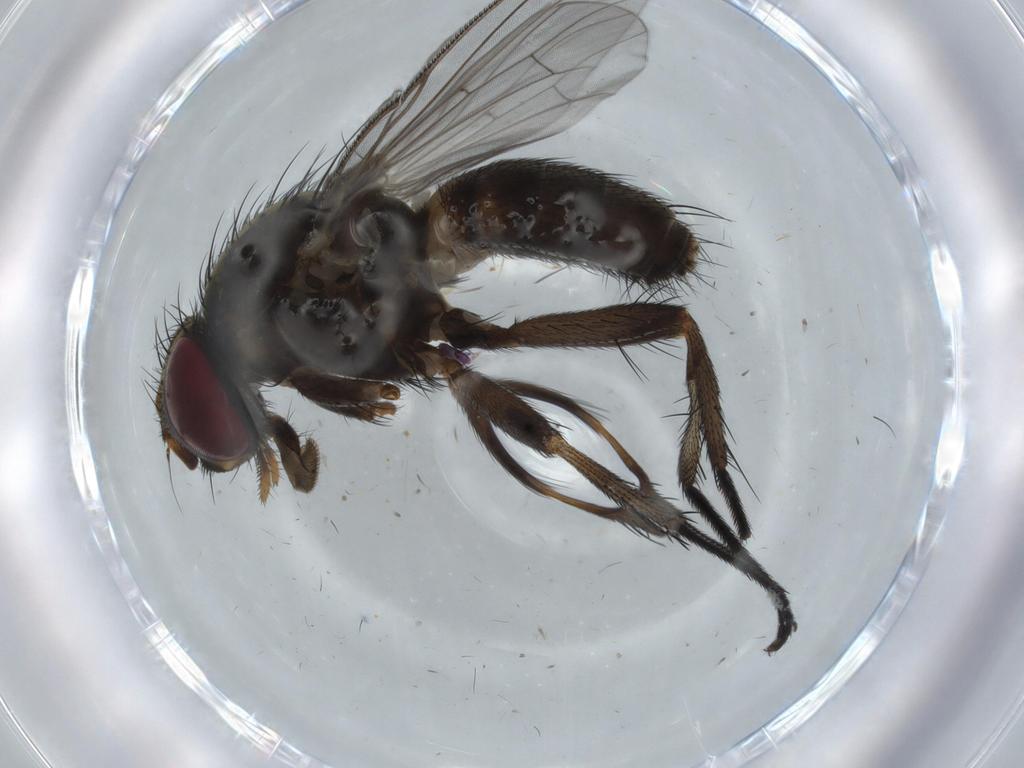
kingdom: Animalia
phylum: Arthropoda
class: Insecta
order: Diptera
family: Sciaridae
